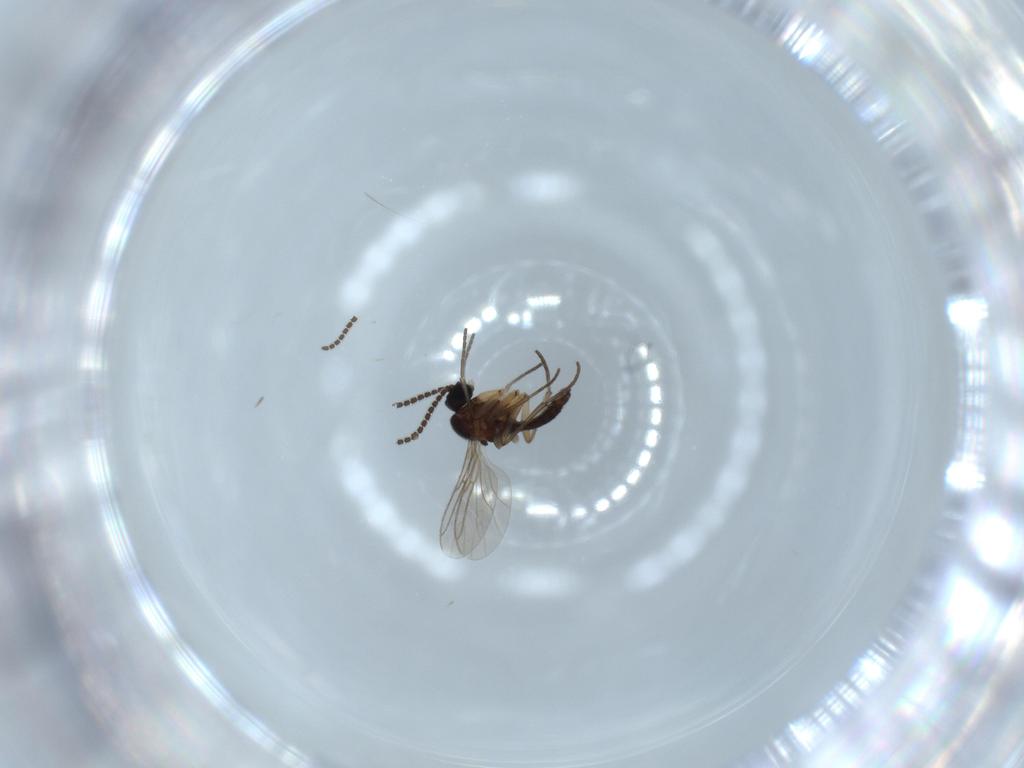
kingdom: Animalia
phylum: Arthropoda
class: Insecta
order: Diptera
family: Sciaridae
